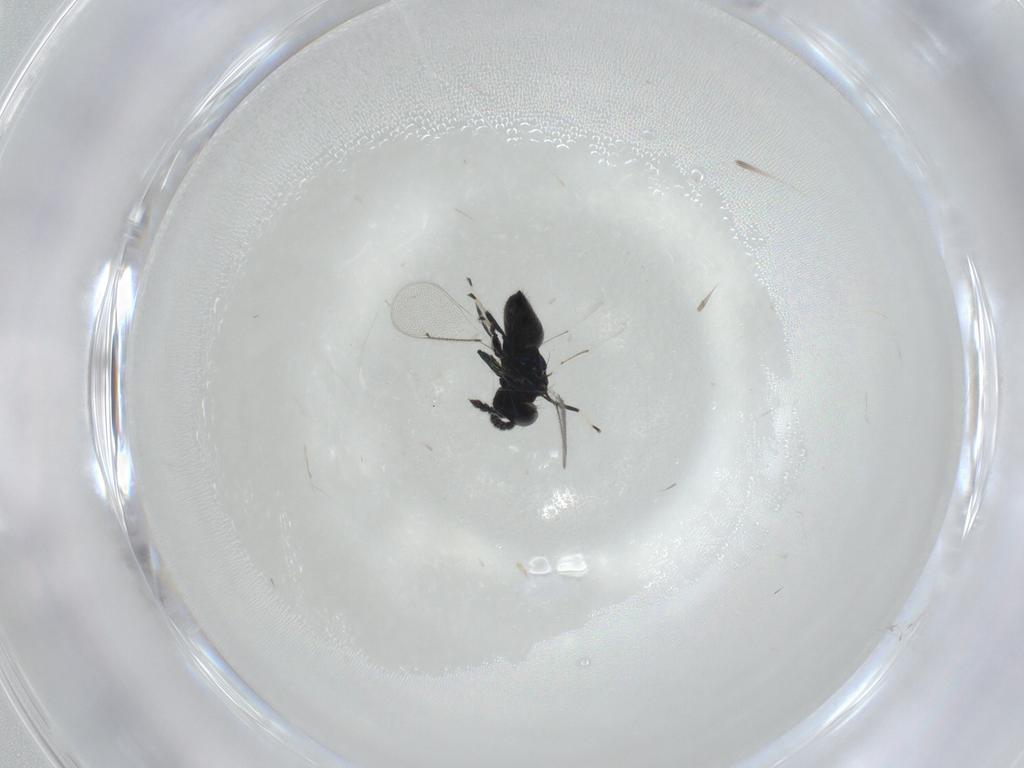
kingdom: Animalia
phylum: Arthropoda
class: Insecta
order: Hymenoptera
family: Eulophidae
